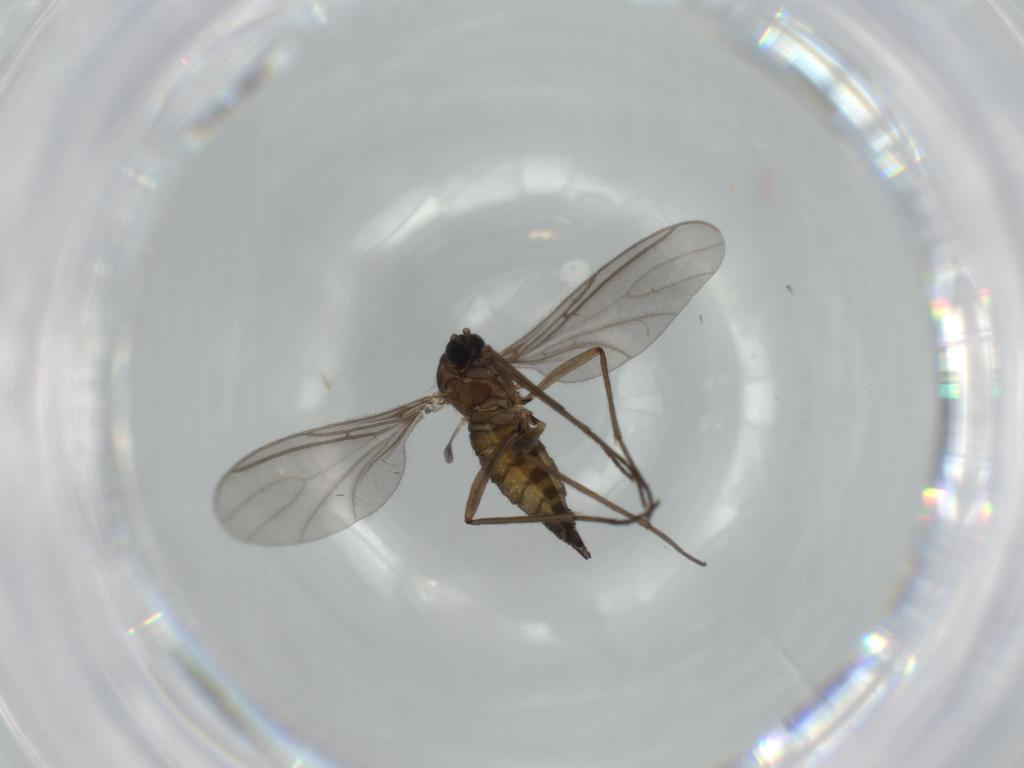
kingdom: Animalia
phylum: Arthropoda
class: Insecta
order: Diptera
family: Sciaridae
